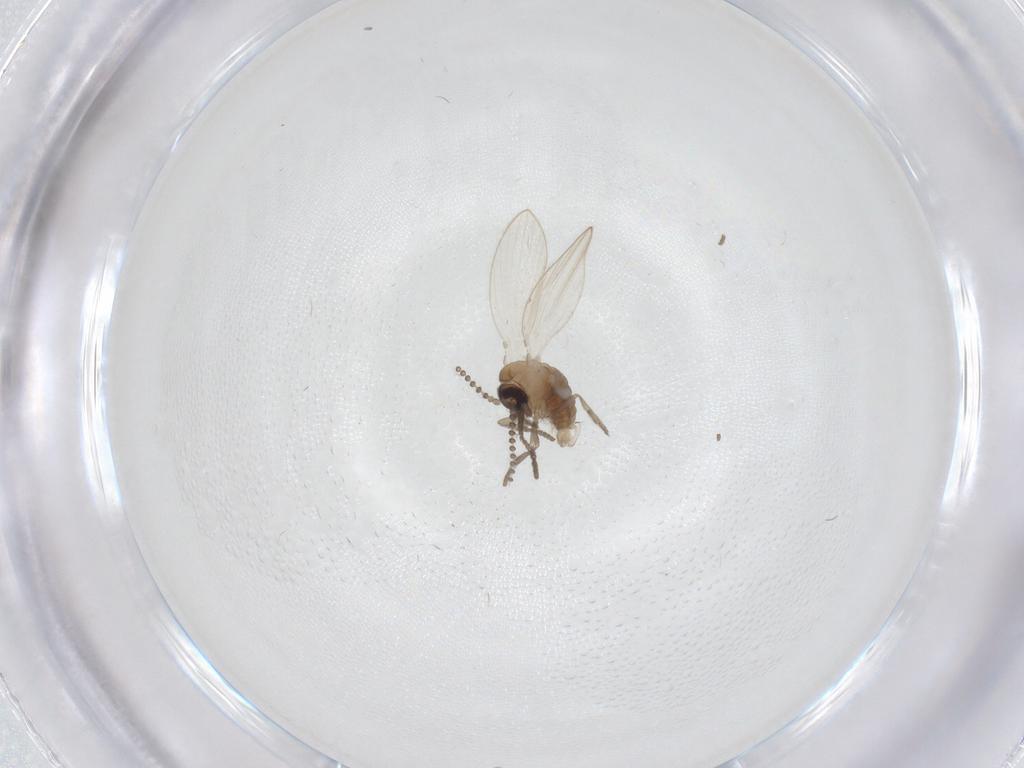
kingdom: Animalia
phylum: Arthropoda
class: Insecta
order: Diptera
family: Psychodidae
